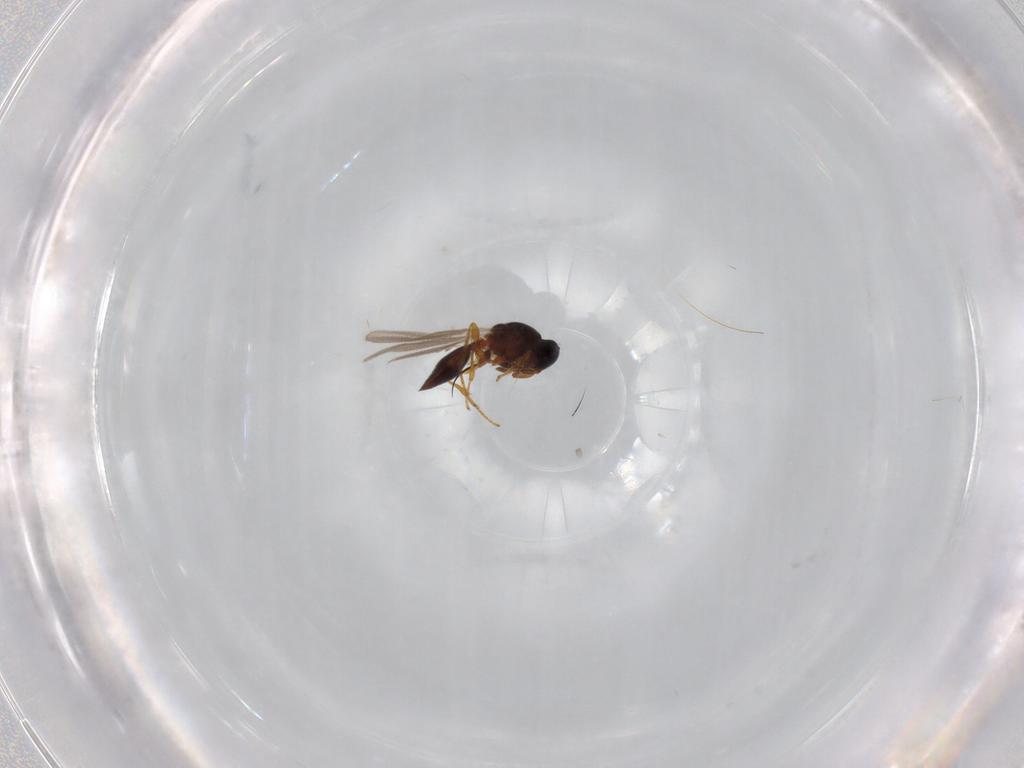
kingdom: Animalia
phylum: Arthropoda
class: Insecta
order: Hymenoptera
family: Platygastridae
